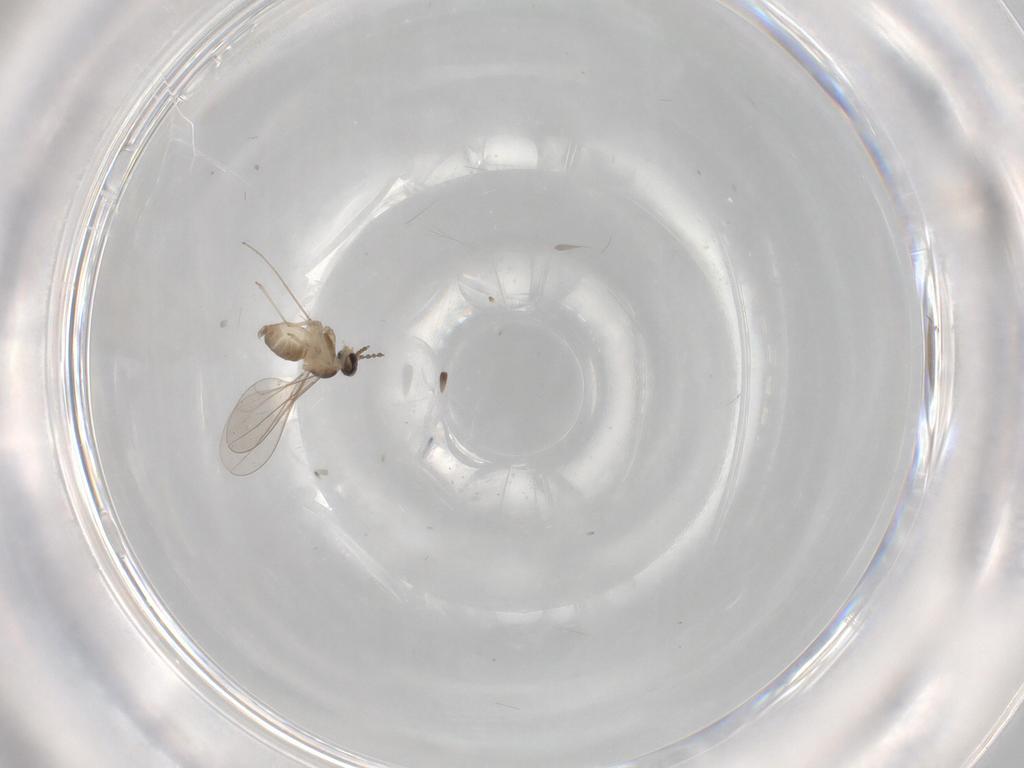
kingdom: Animalia
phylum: Arthropoda
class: Insecta
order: Diptera
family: Cecidomyiidae
